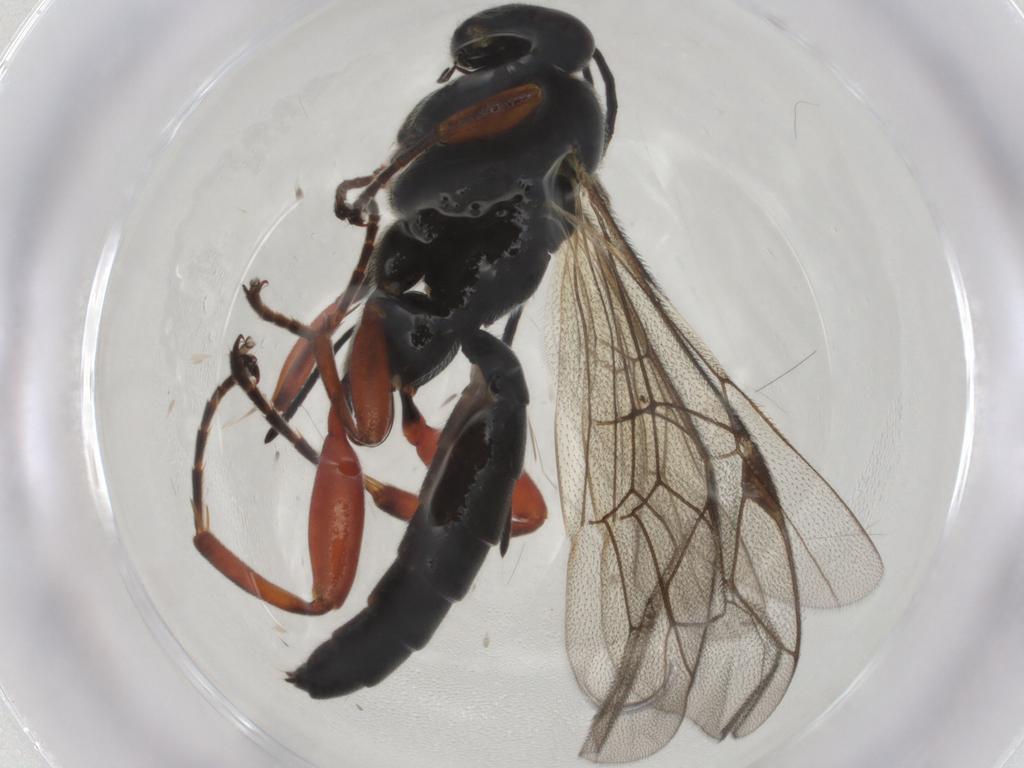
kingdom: Animalia
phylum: Arthropoda
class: Insecta
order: Hymenoptera
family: Ichneumonidae
